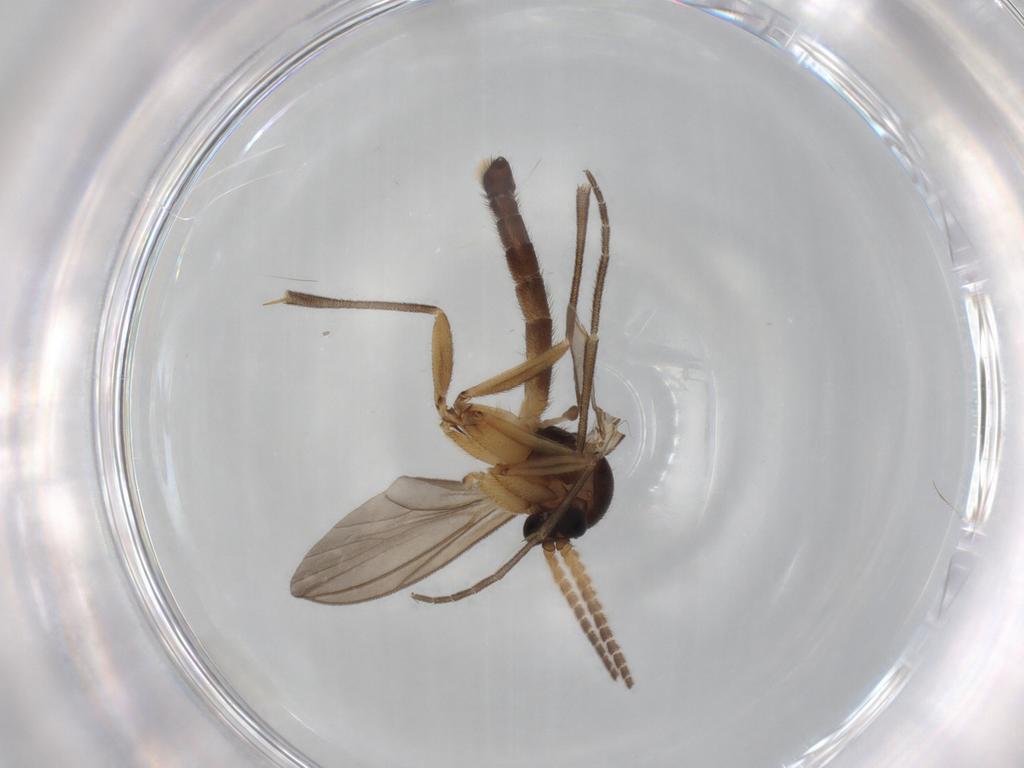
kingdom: Animalia
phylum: Arthropoda
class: Insecta
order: Diptera
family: Mycetophilidae
